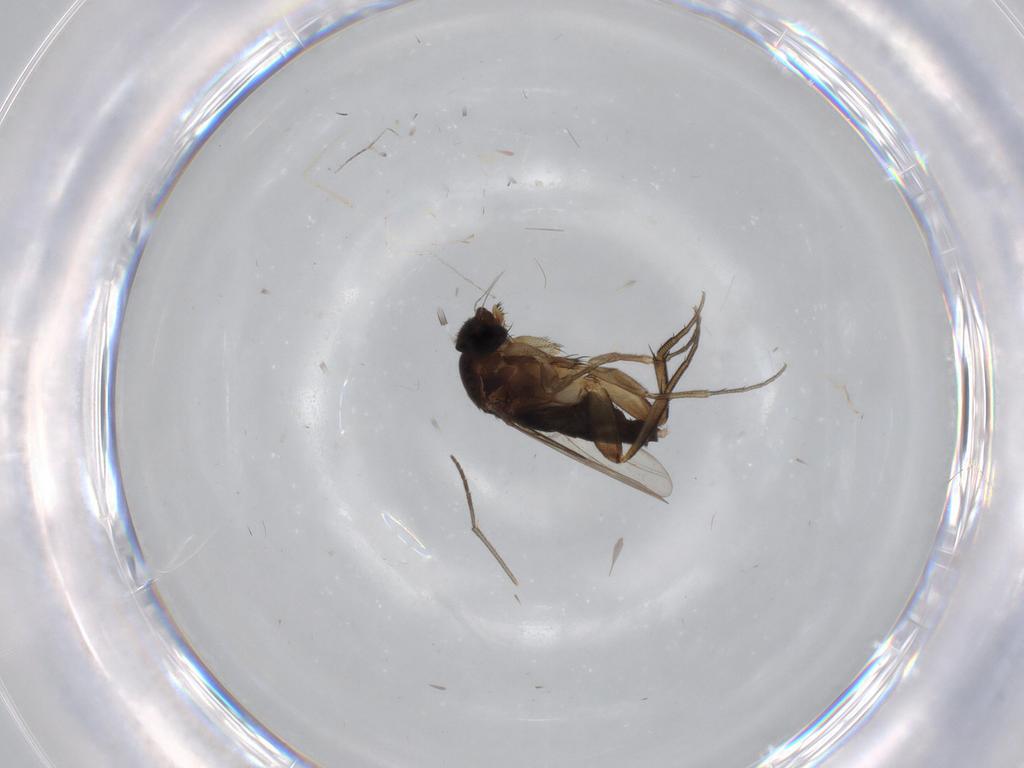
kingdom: Animalia
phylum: Arthropoda
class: Insecta
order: Diptera
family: Phoridae
